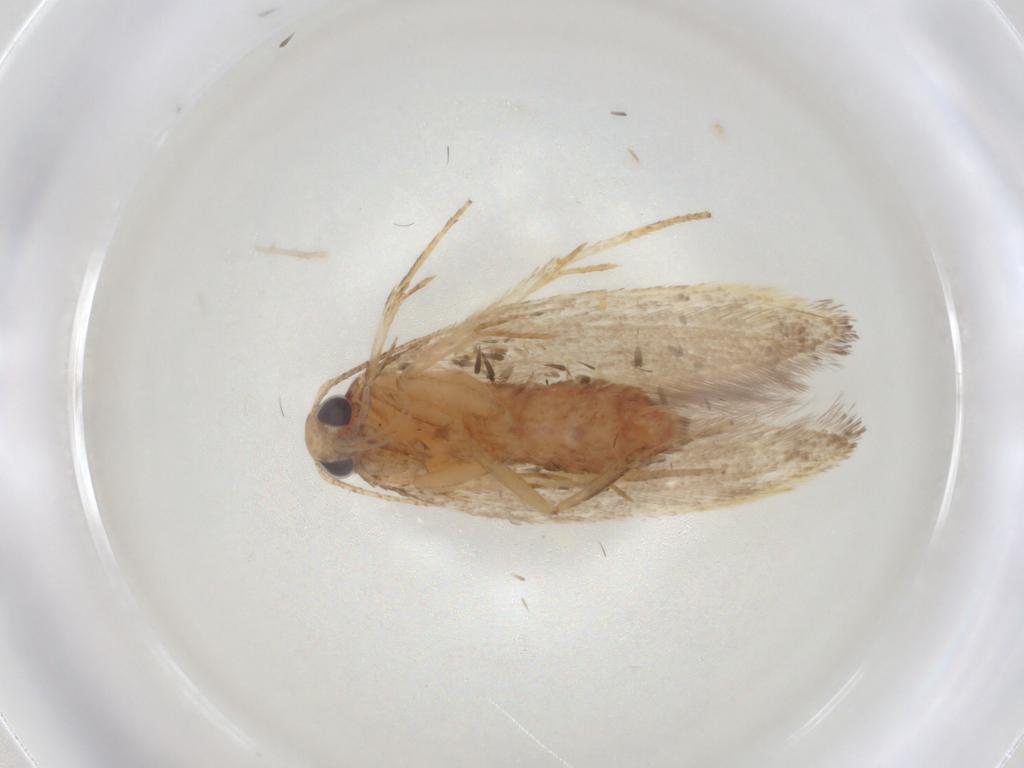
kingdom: Animalia
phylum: Arthropoda
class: Insecta
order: Lepidoptera
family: Oecophoridae
